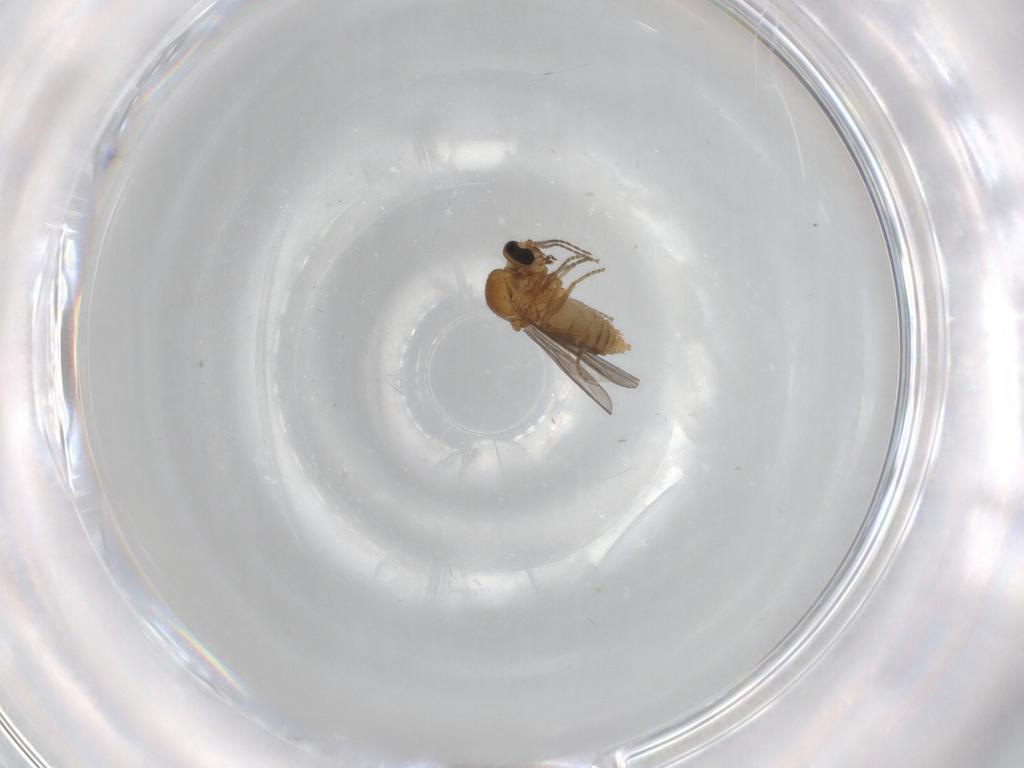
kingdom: Animalia
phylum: Arthropoda
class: Insecta
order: Diptera
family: Ceratopogonidae
